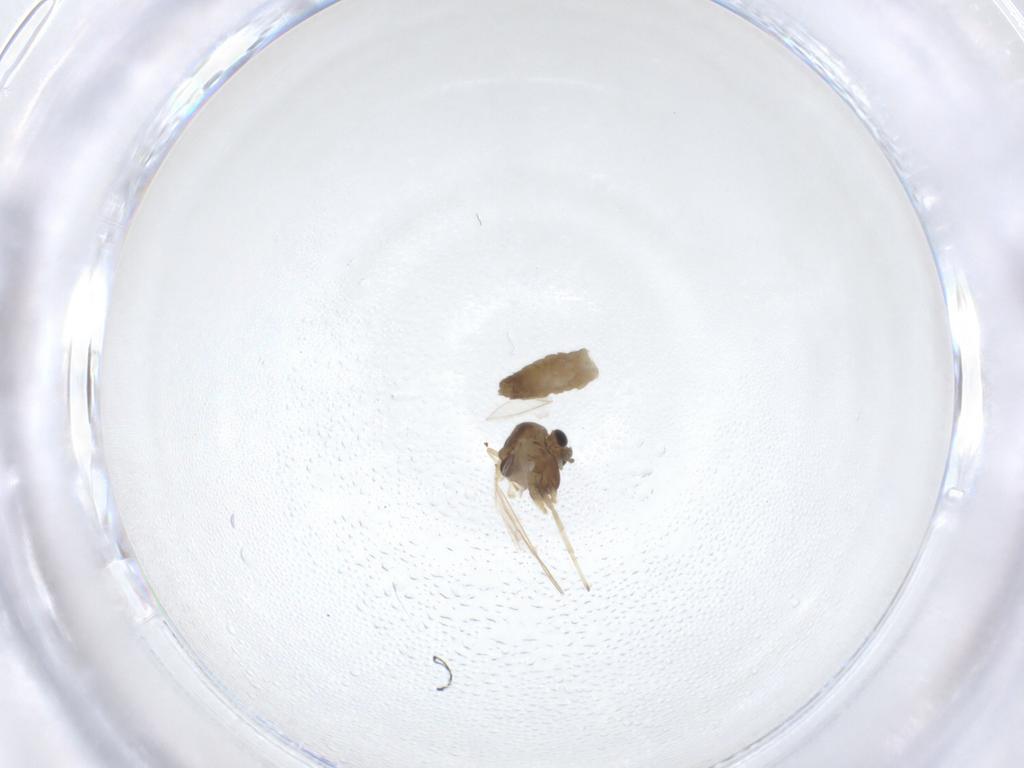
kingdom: Animalia
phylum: Arthropoda
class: Insecta
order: Diptera
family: Chironomidae
